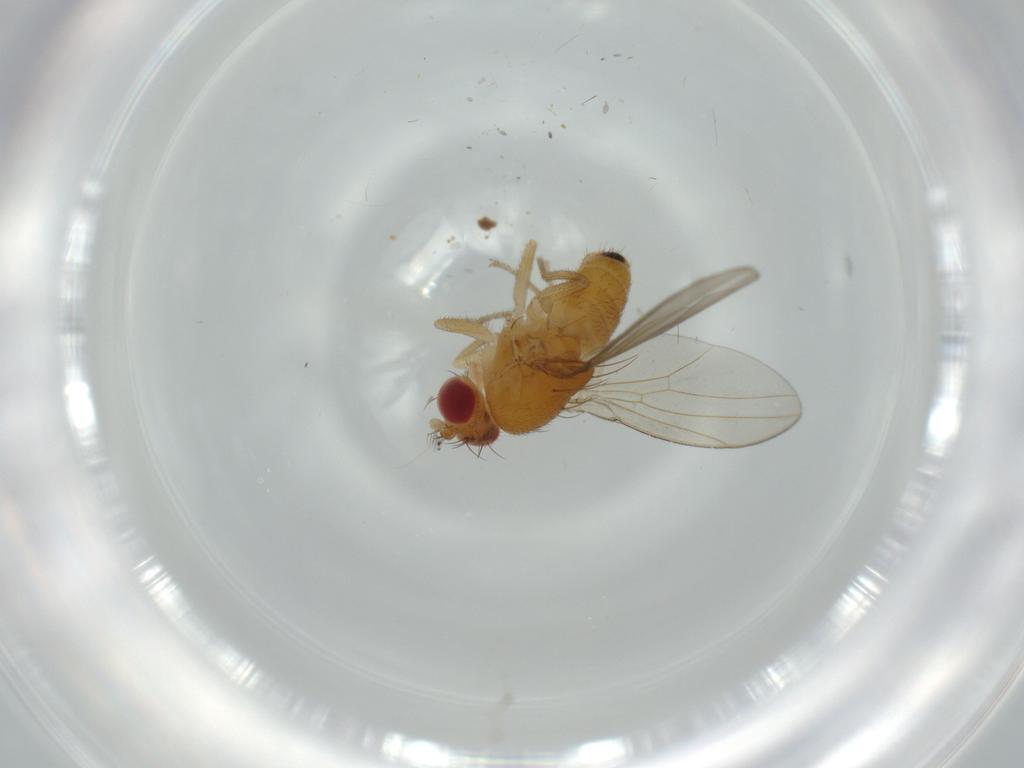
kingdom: Animalia
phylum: Arthropoda
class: Insecta
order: Diptera
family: Drosophilidae
